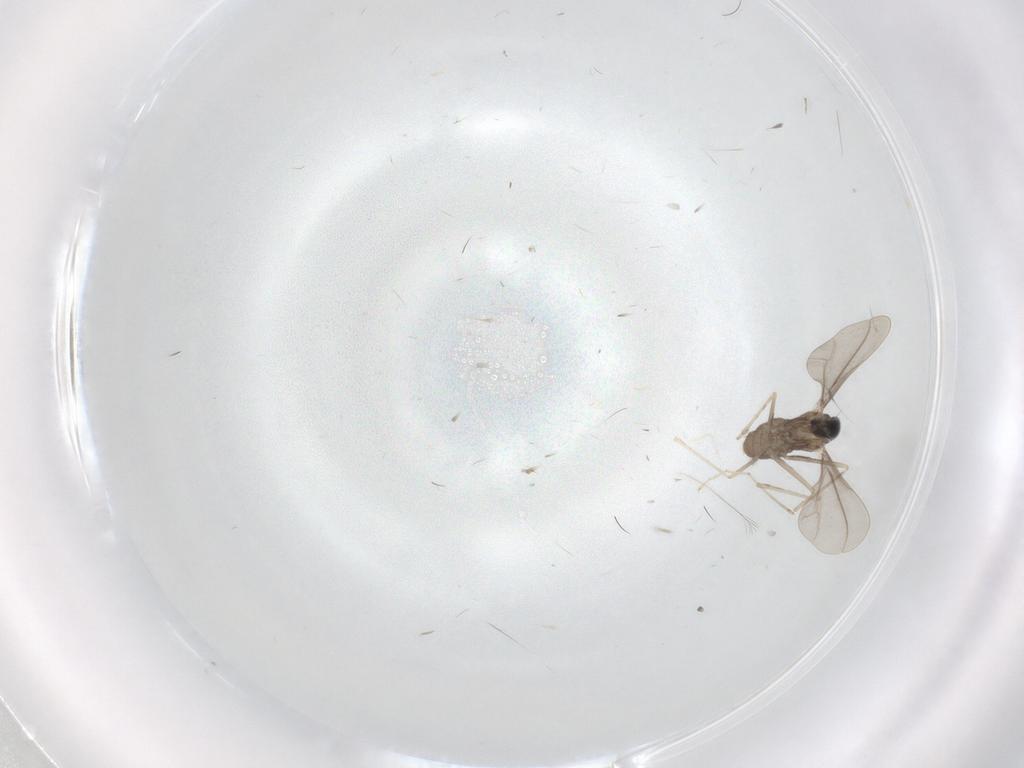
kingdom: Animalia
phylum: Arthropoda
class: Insecta
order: Diptera
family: Cecidomyiidae
